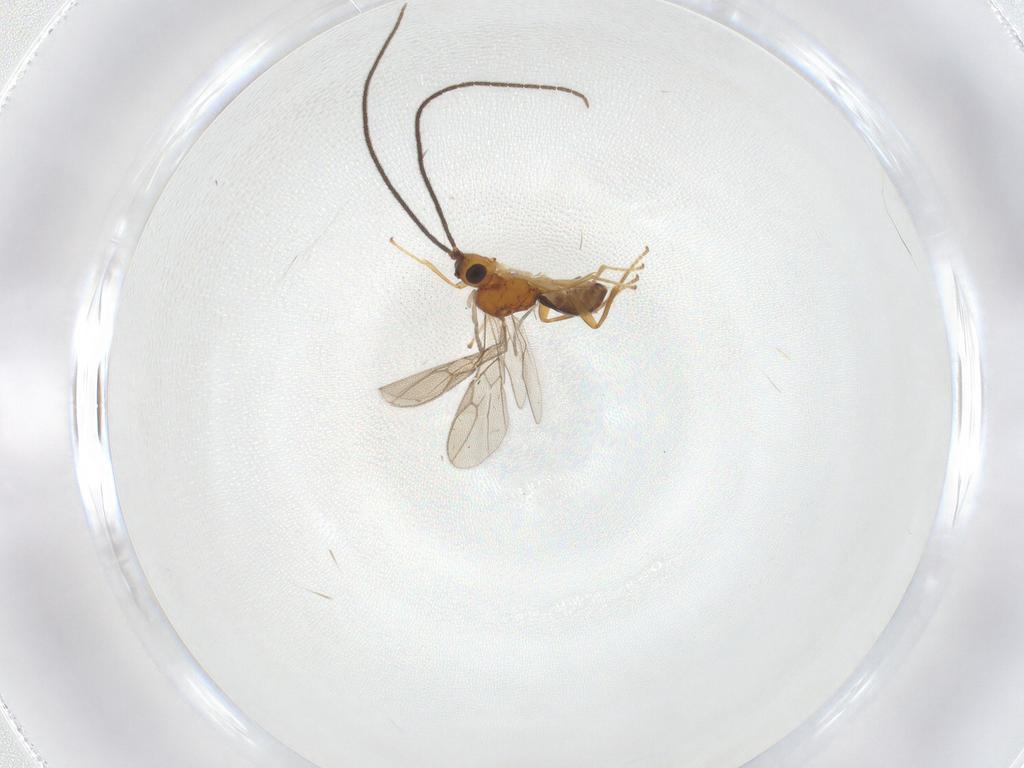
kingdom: Animalia
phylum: Arthropoda
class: Insecta
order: Hymenoptera
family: Braconidae
